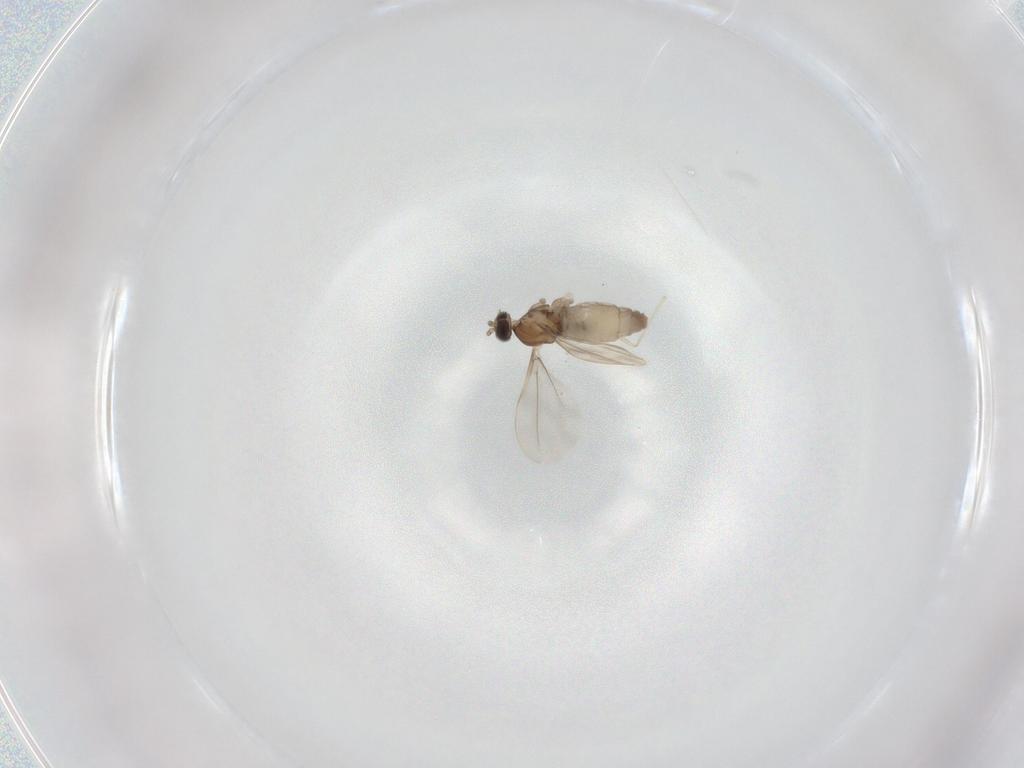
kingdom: Animalia
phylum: Arthropoda
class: Insecta
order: Diptera
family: Cecidomyiidae
